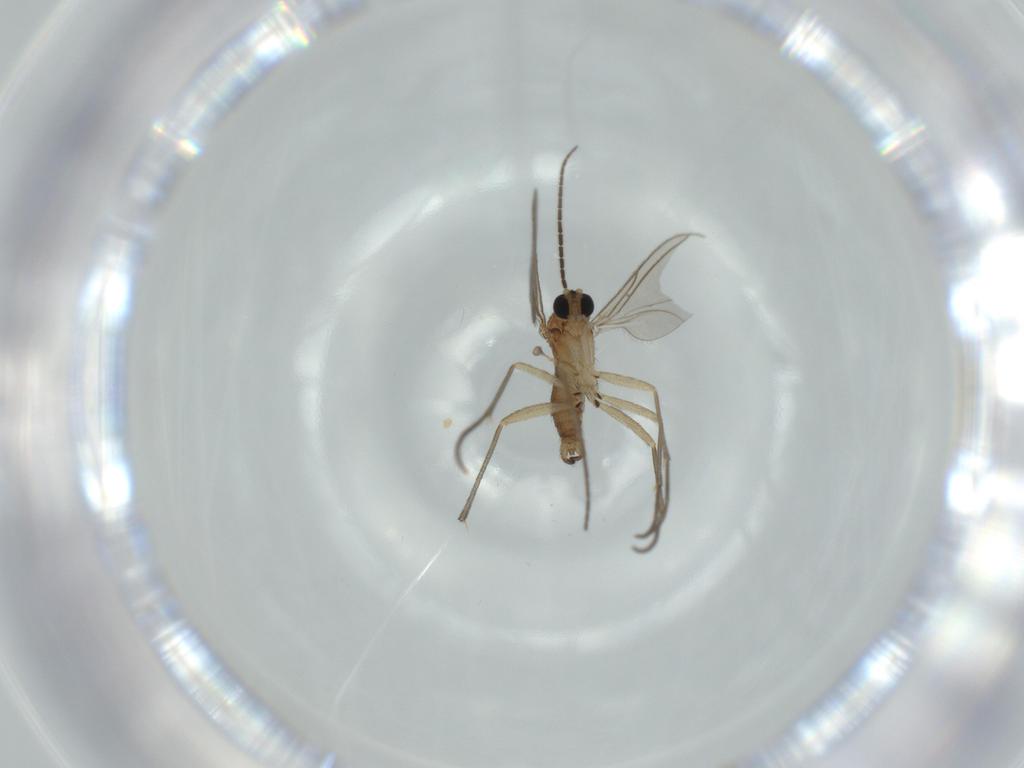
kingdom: Animalia
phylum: Arthropoda
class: Insecta
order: Diptera
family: Sciaridae
